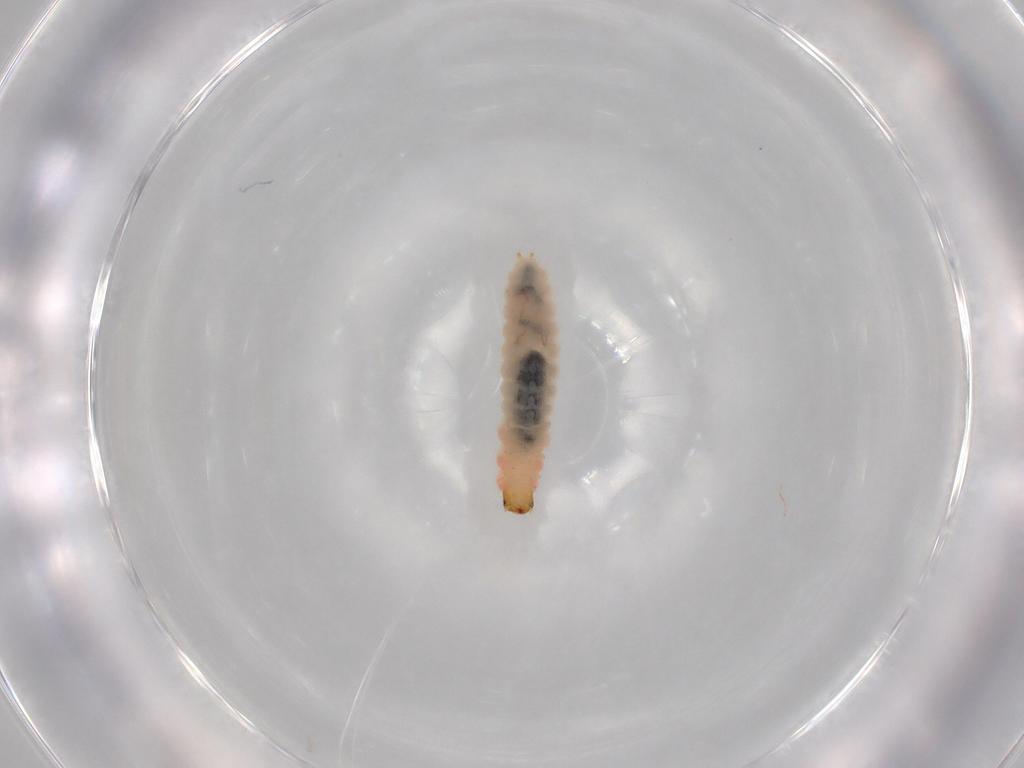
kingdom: Animalia
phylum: Arthropoda
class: Insecta
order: Coleoptera
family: Melyridae
